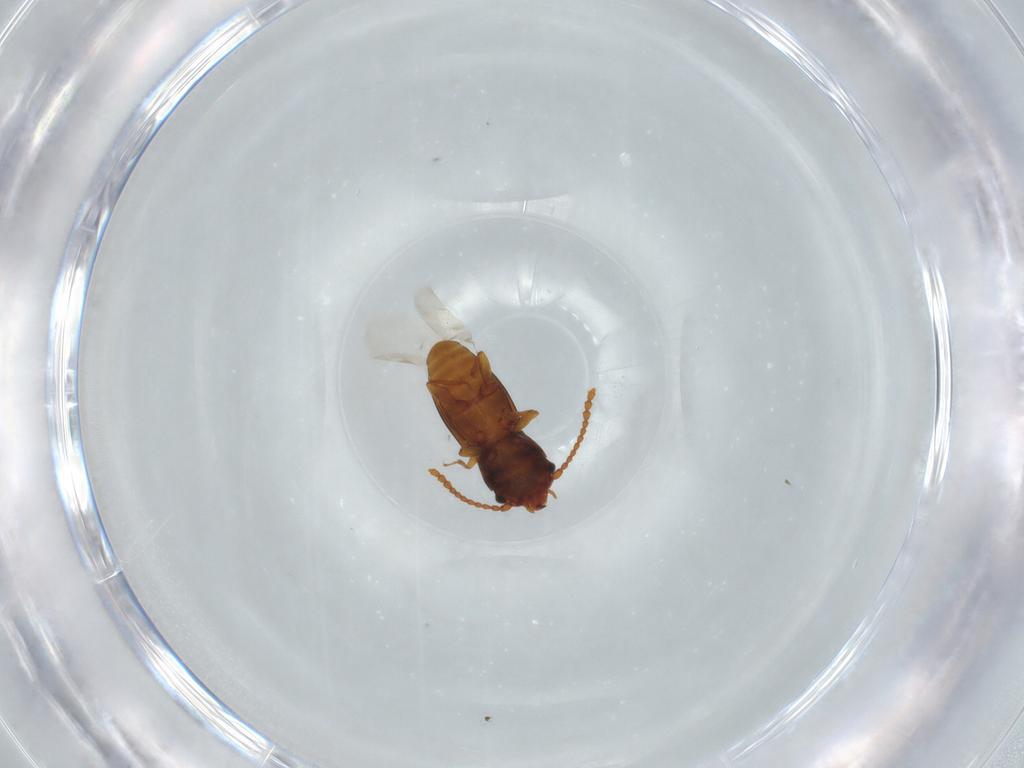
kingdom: Animalia
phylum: Arthropoda
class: Insecta
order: Coleoptera
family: Laemophloeidae
